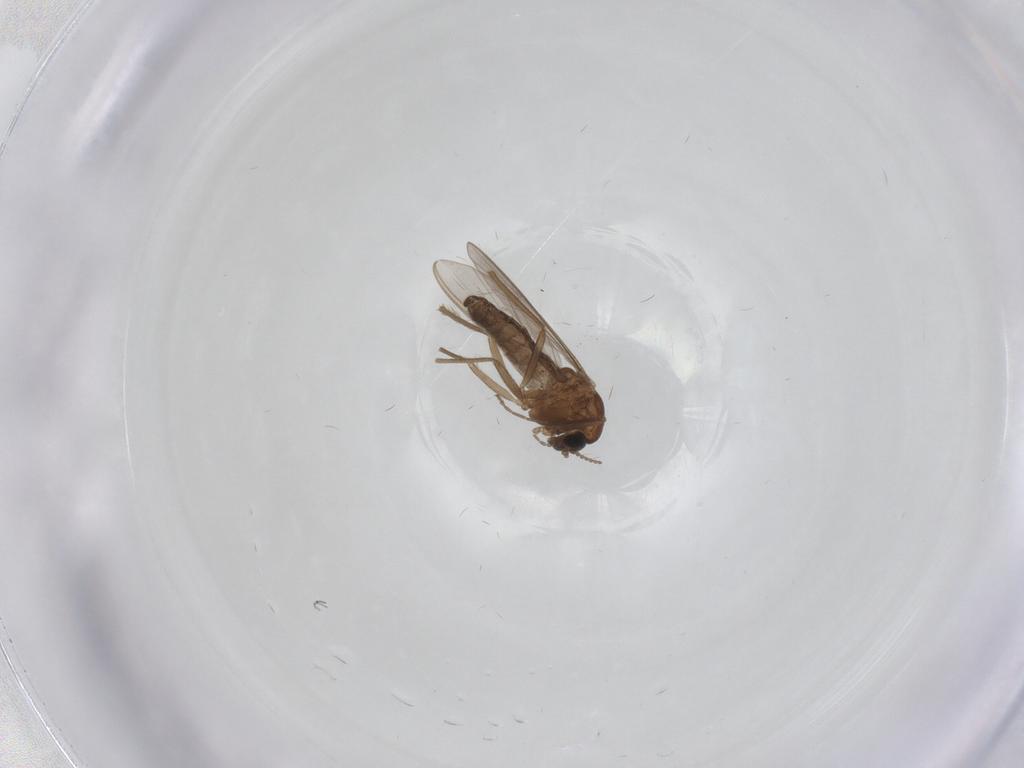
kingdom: Animalia
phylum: Arthropoda
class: Insecta
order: Diptera
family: Chironomidae
